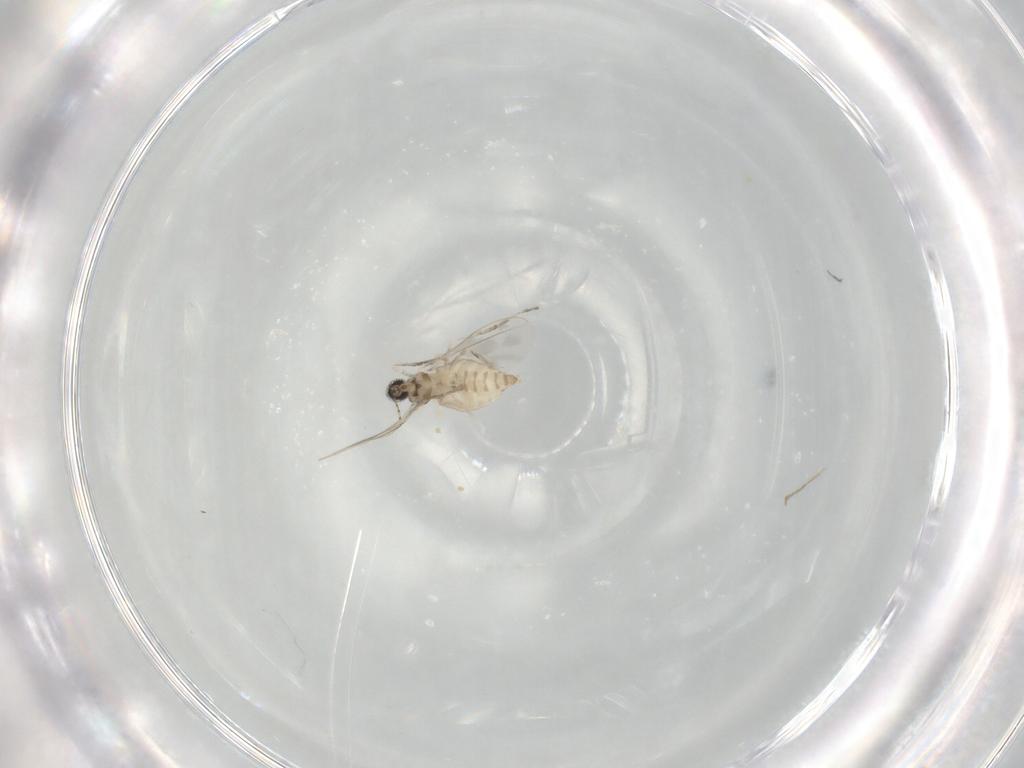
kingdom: Animalia
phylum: Arthropoda
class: Insecta
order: Diptera
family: Cecidomyiidae
